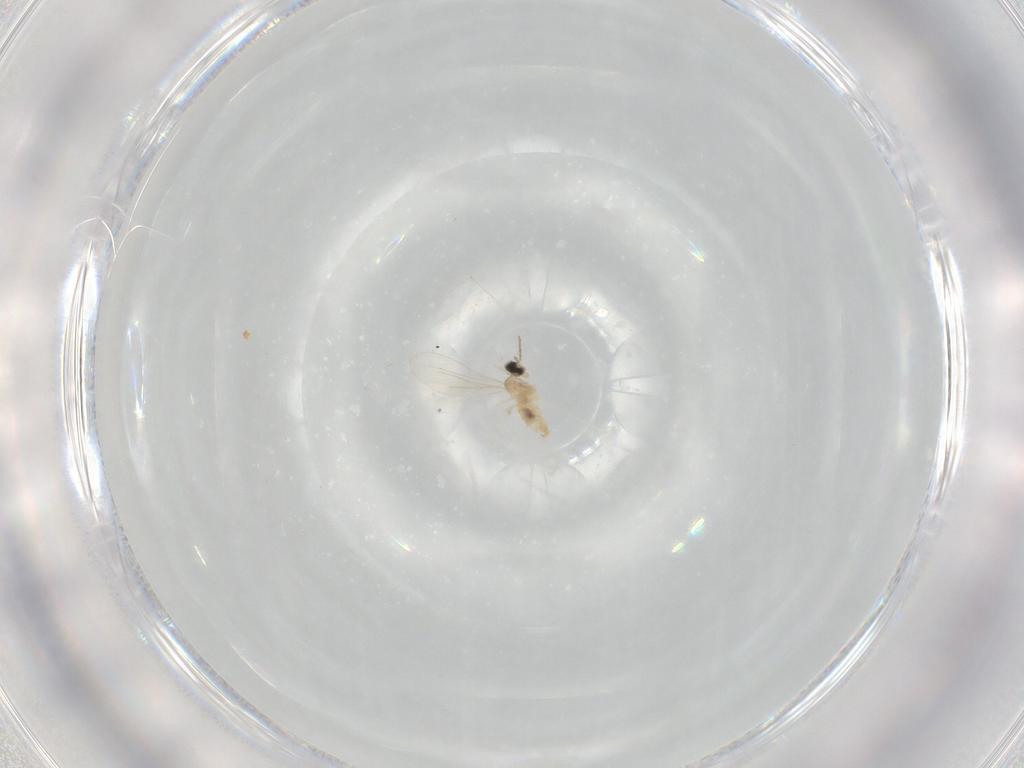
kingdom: Animalia
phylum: Arthropoda
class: Insecta
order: Diptera
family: Cecidomyiidae
